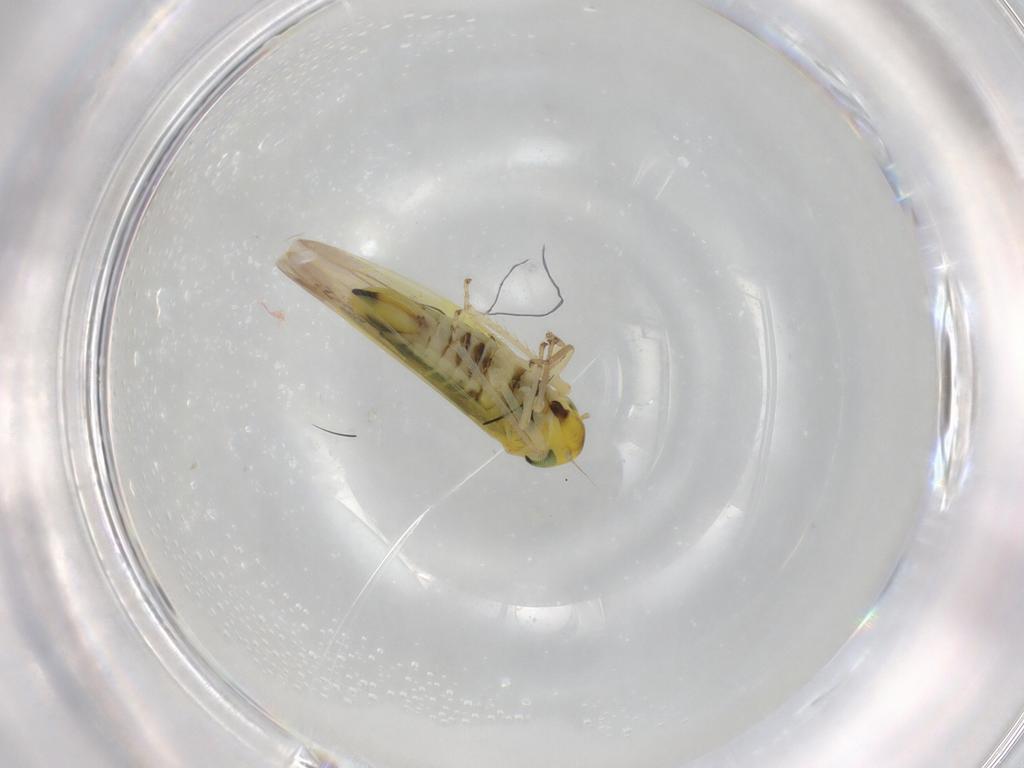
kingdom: Animalia
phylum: Arthropoda
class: Insecta
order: Hemiptera
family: Cicadellidae
